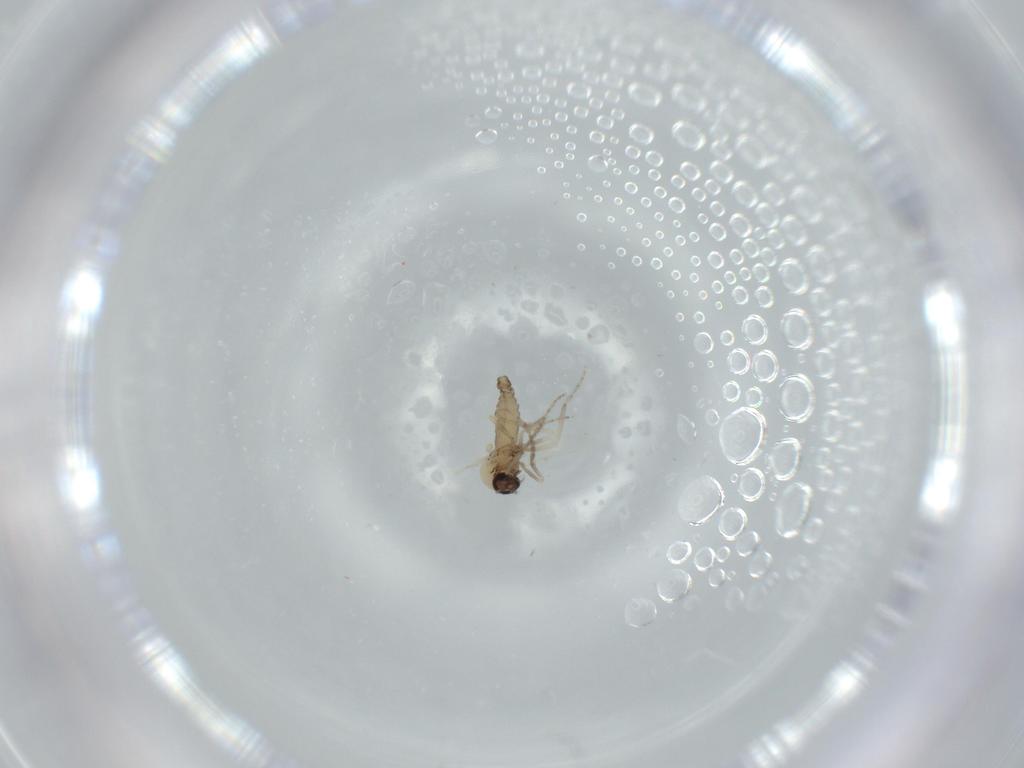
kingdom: Animalia
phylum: Arthropoda
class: Insecta
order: Diptera
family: Ceratopogonidae
